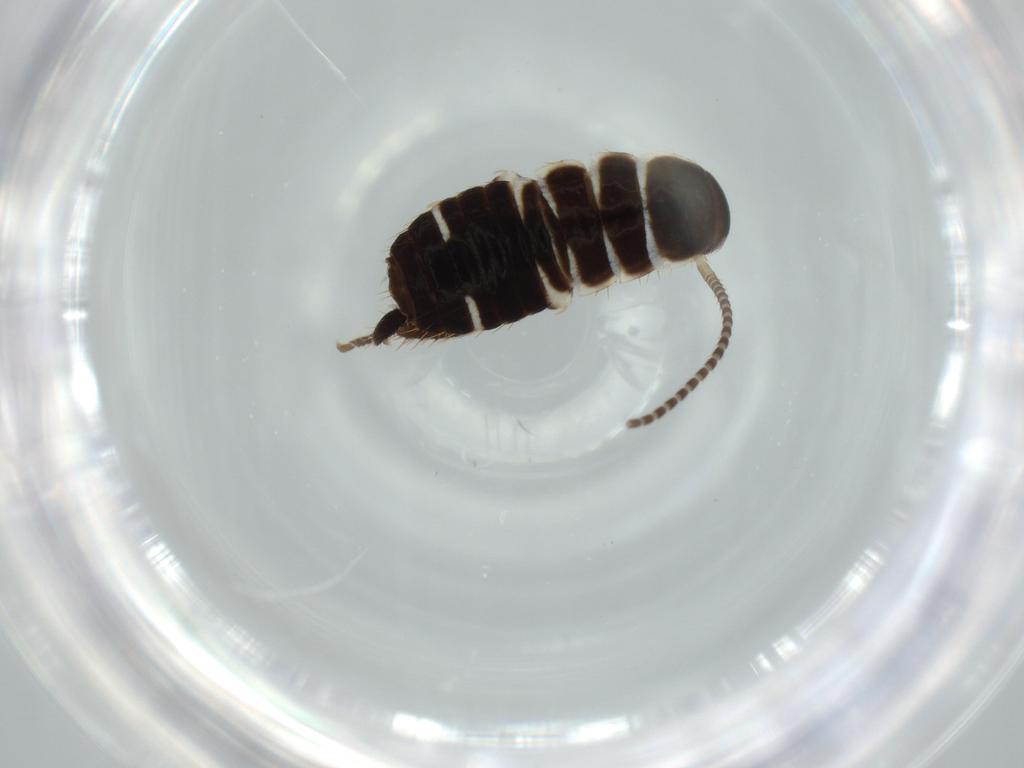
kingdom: Animalia
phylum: Arthropoda
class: Insecta
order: Blattodea
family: Ectobiidae
